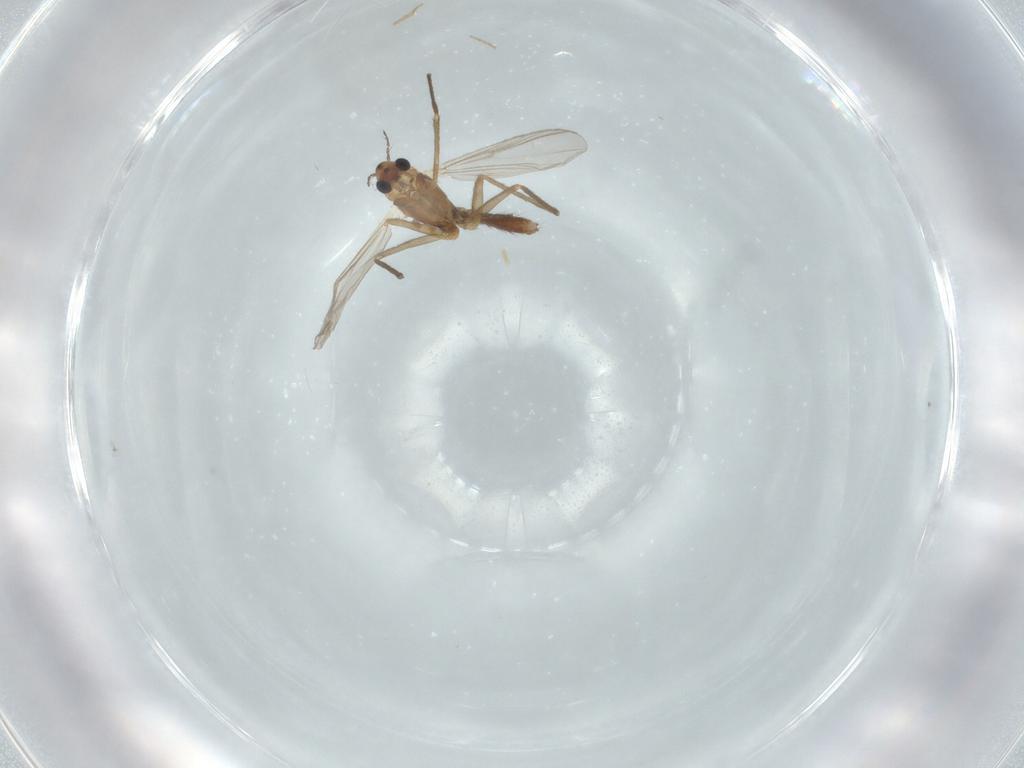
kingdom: Animalia
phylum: Arthropoda
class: Insecta
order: Diptera
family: Chironomidae
